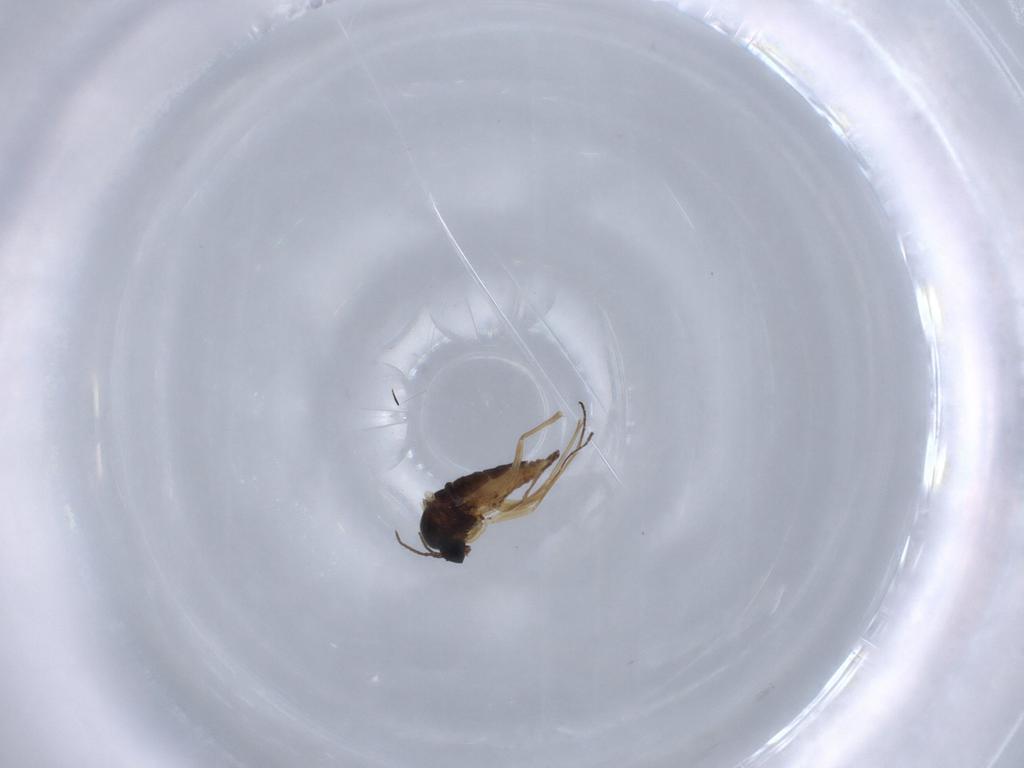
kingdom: Animalia
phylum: Arthropoda
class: Insecta
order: Diptera
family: Sciaridae
